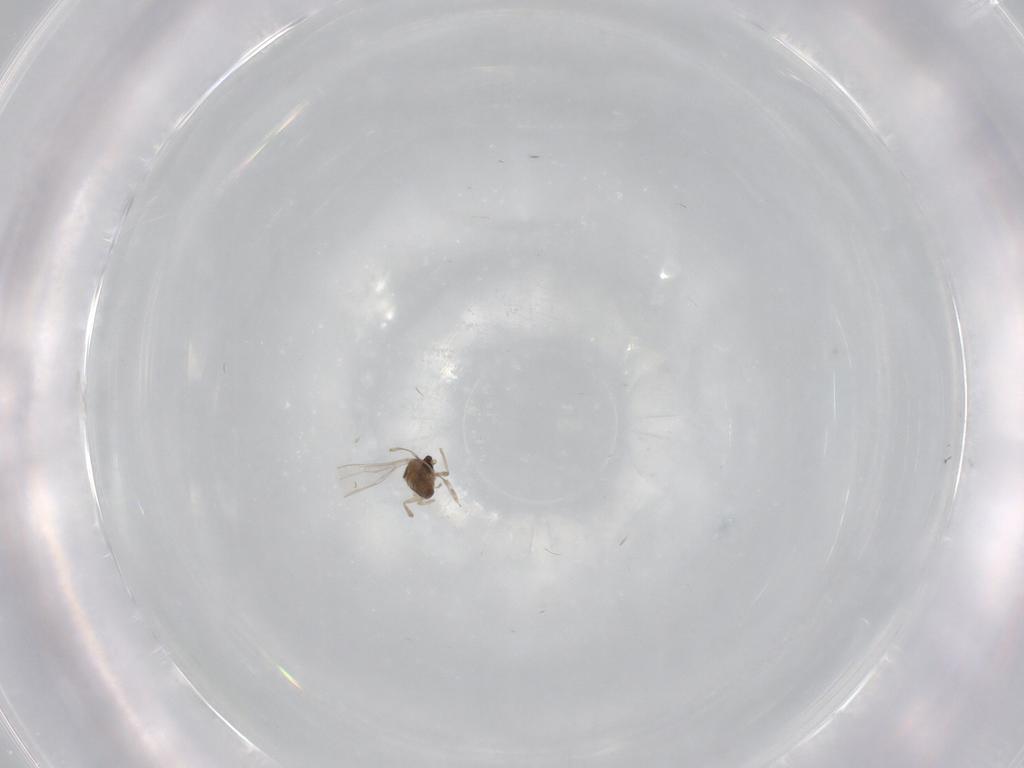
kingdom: Animalia
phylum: Arthropoda
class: Insecta
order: Diptera
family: Cecidomyiidae
